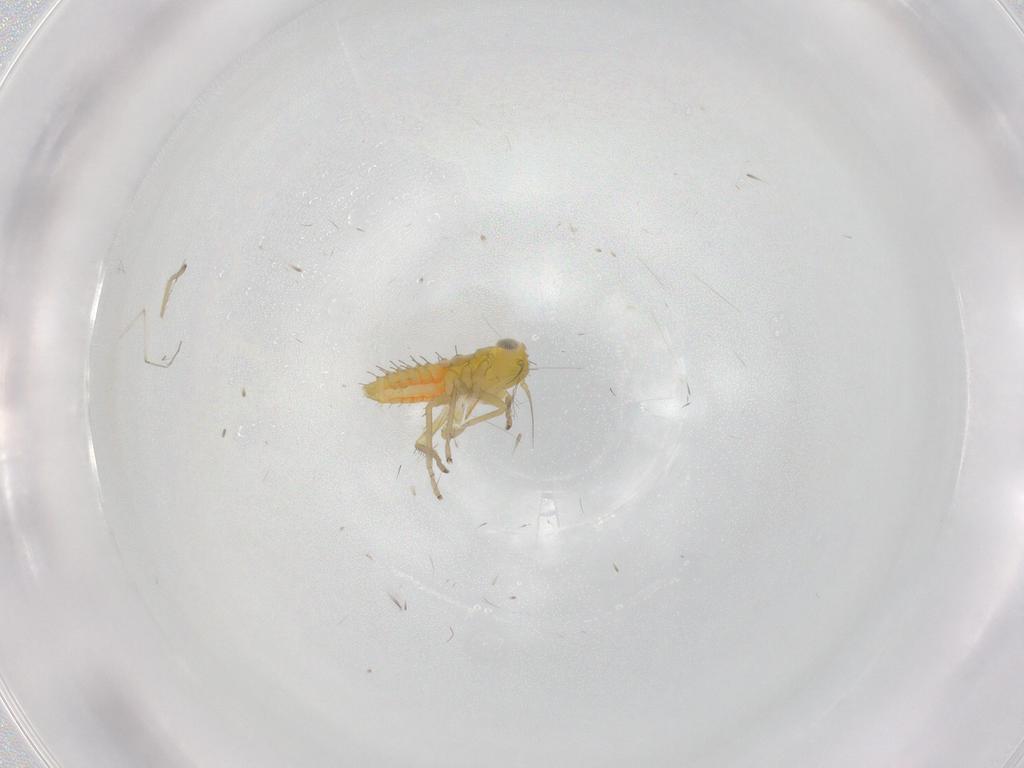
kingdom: Animalia
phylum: Arthropoda
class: Insecta
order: Hemiptera
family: Cicadellidae
